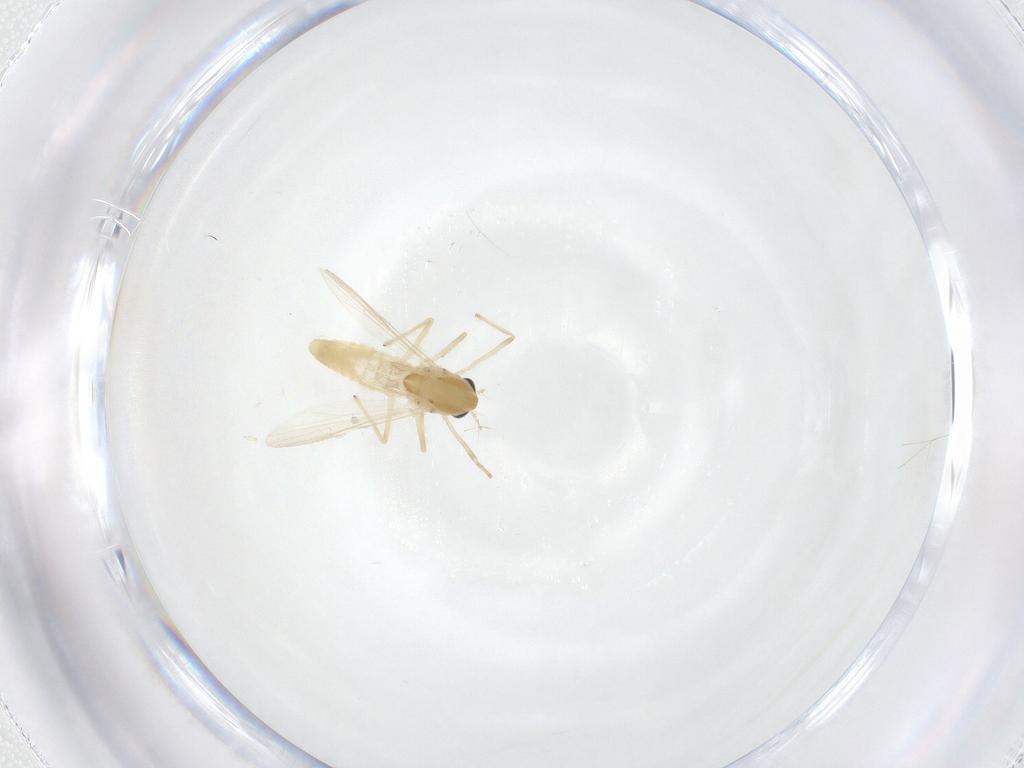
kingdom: Animalia
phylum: Arthropoda
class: Insecta
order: Diptera
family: Chironomidae
